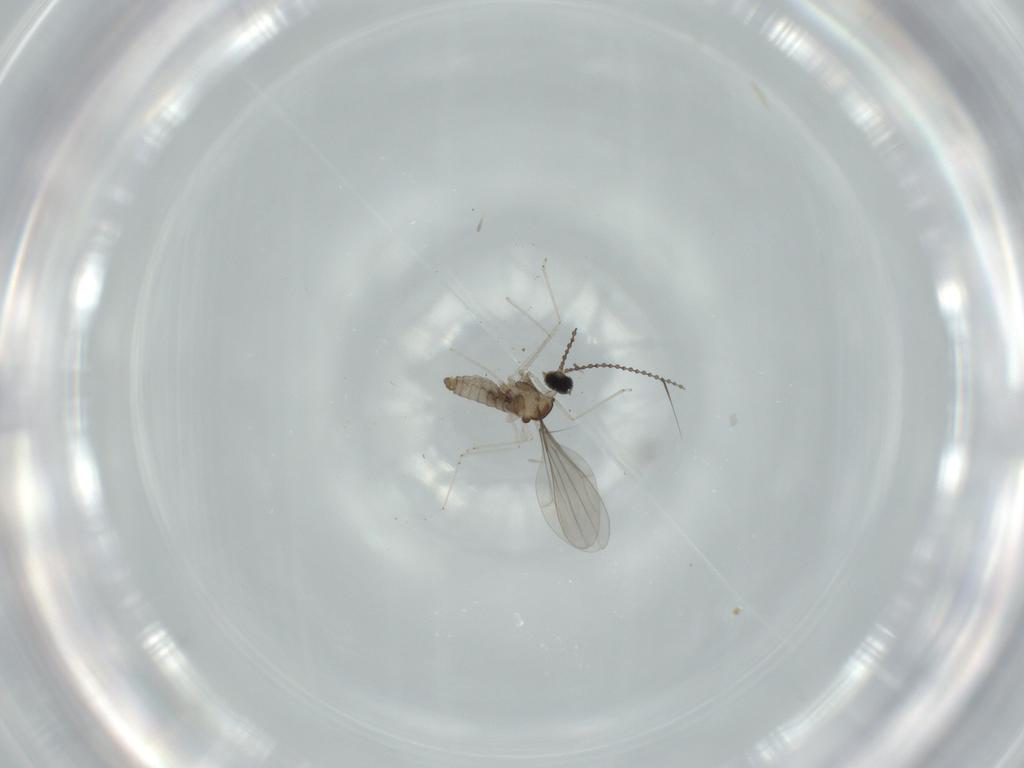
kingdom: Animalia
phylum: Arthropoda
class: Insecta
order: Diptera
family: Cecidomyiidae
